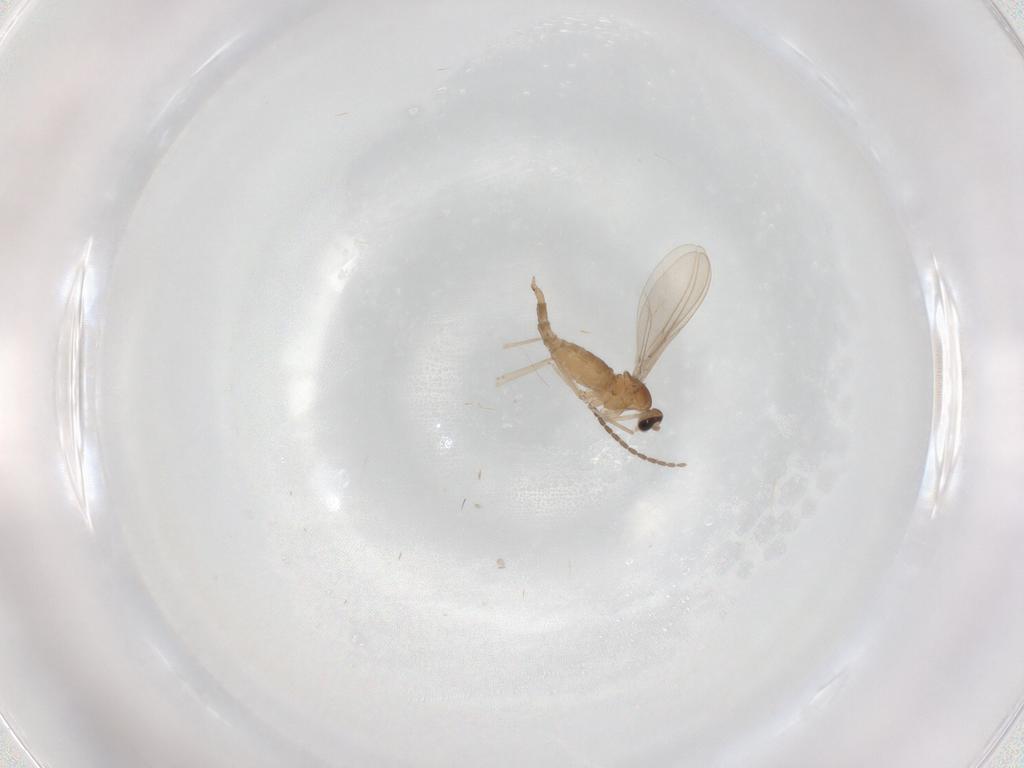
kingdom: Animalia
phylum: Arthropoda
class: Insecta
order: Diptera
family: Cecidomyiidae
